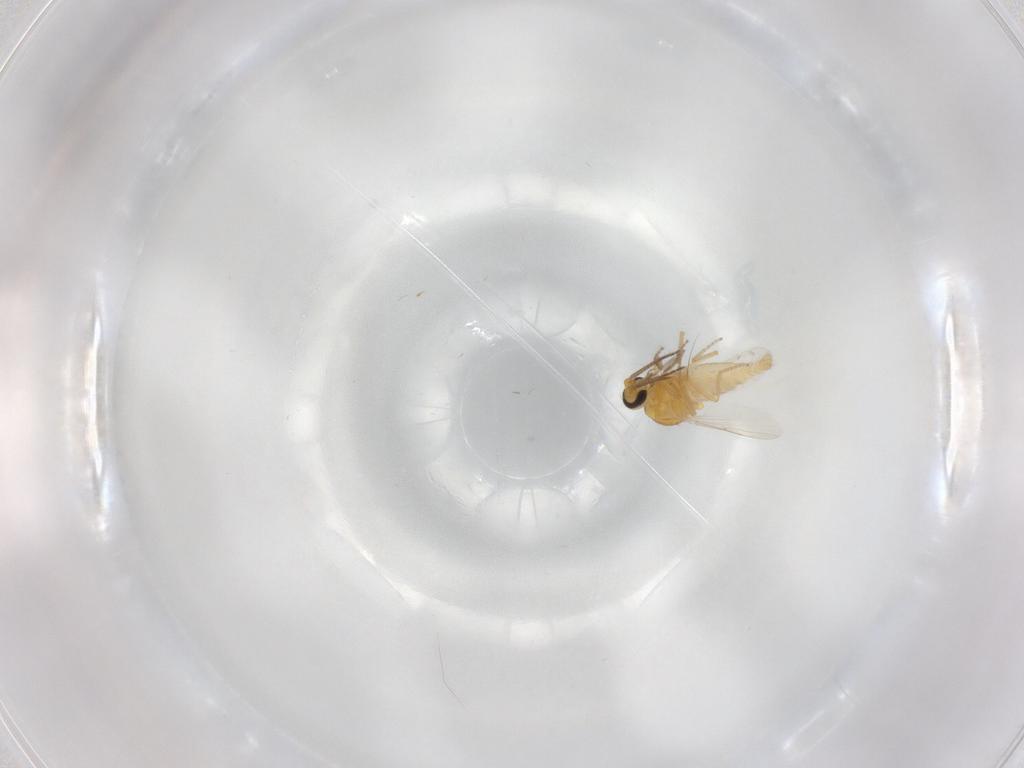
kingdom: Animalia
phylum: Arthropoda
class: Insecta
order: Diptera
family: Ceratopogonidae
